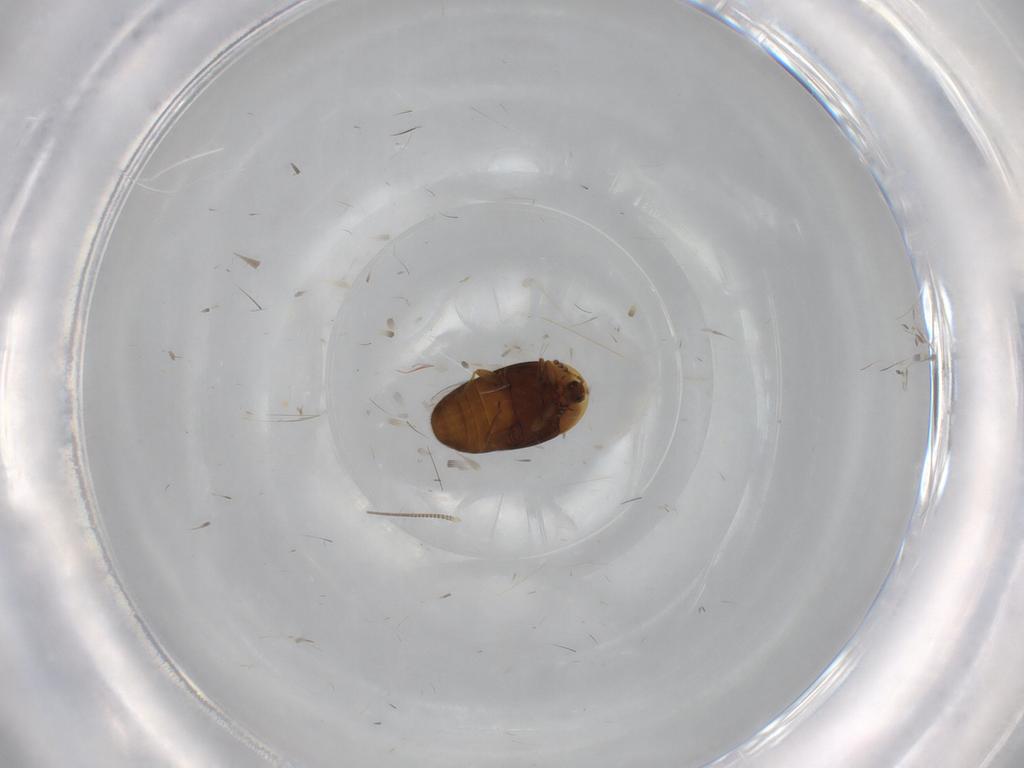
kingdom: Animalia
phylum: Arthropoda
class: Insecta
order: Coleoptera
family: Corylophidae
